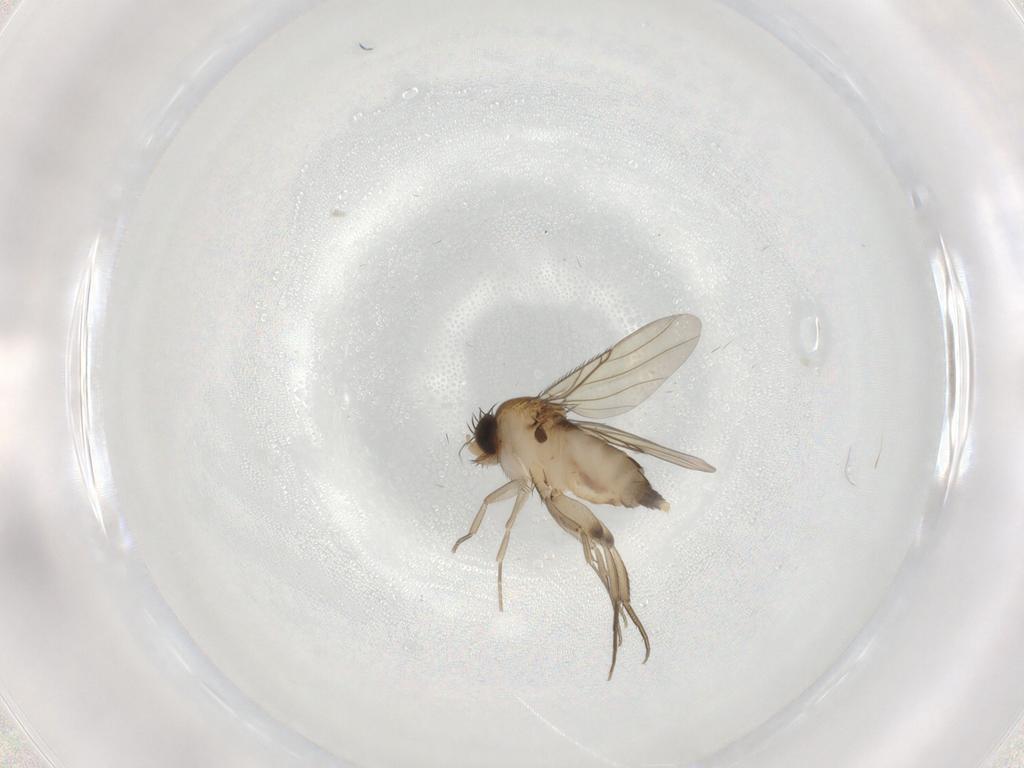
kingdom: Animalia
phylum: Arthropoda
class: Insecta
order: Diptera
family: Phoridae
